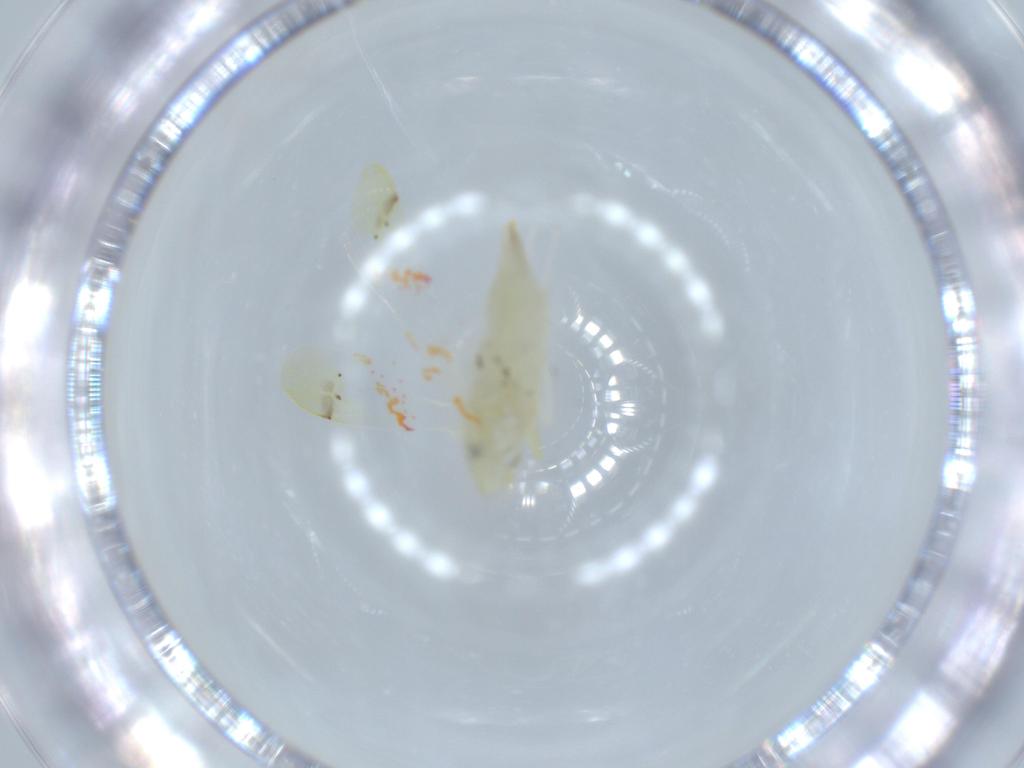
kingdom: Animalia
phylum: Arthropoda
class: Insecta
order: Hemiptera
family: Cicadellidae
